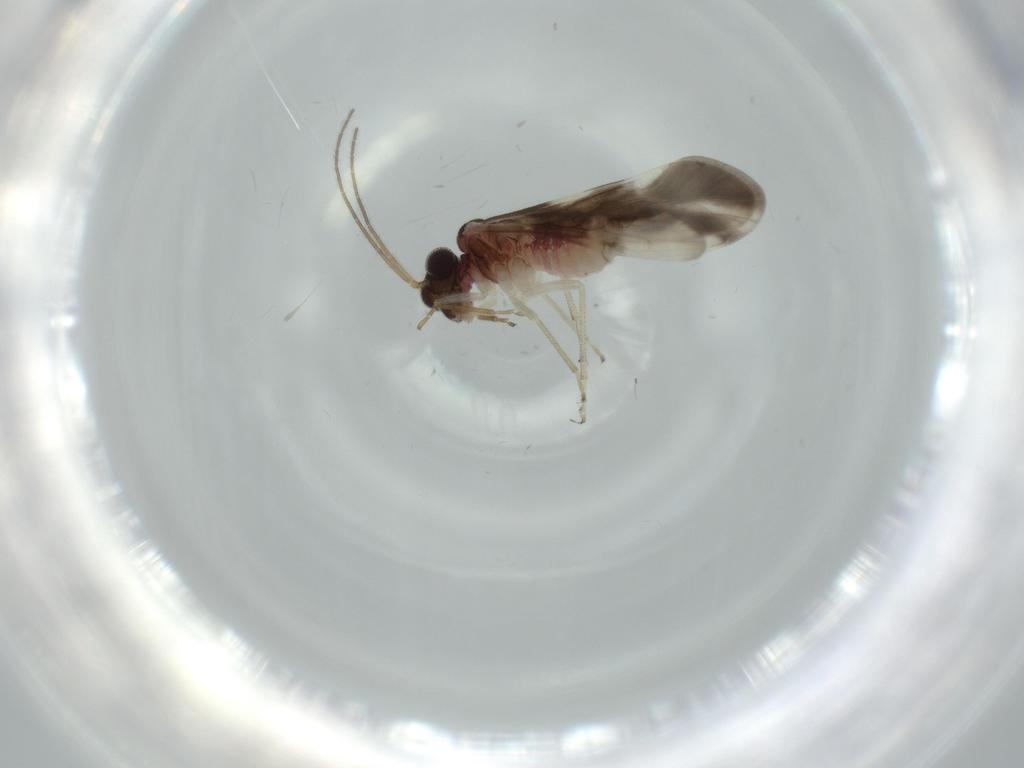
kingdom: Animalia
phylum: Arthropoda
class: Insecta
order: Psocodea
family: Caeciliusidae
